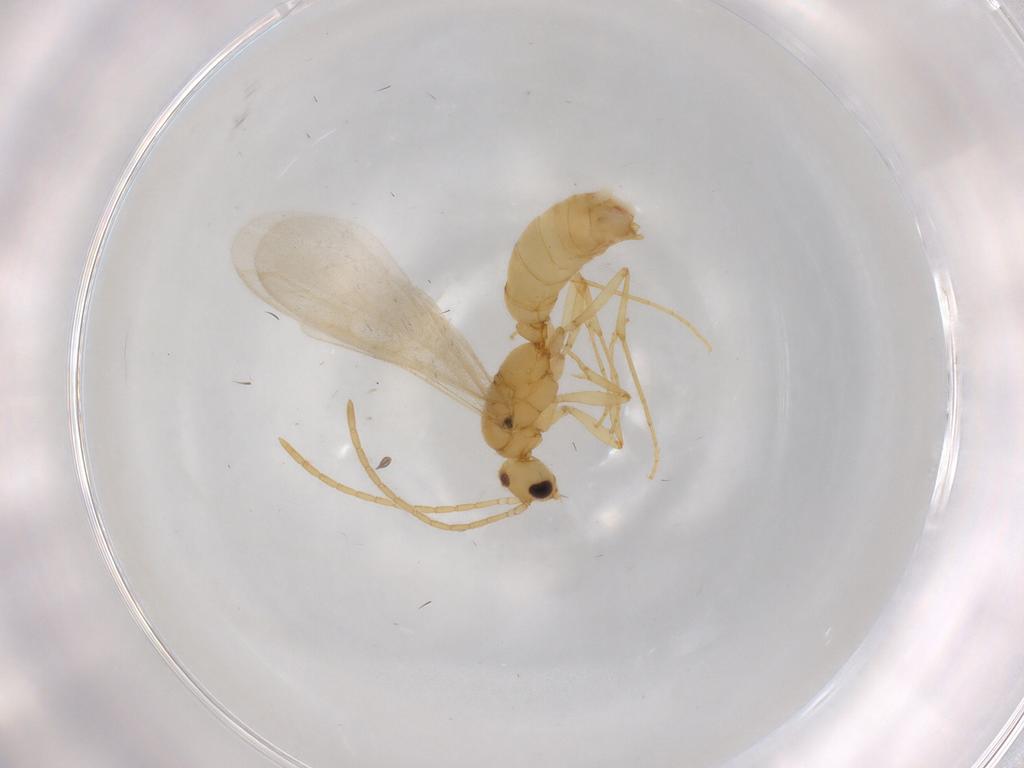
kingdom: Animalia
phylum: Arthropoda
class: Insecta
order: Hymenoptera
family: Formicidae
